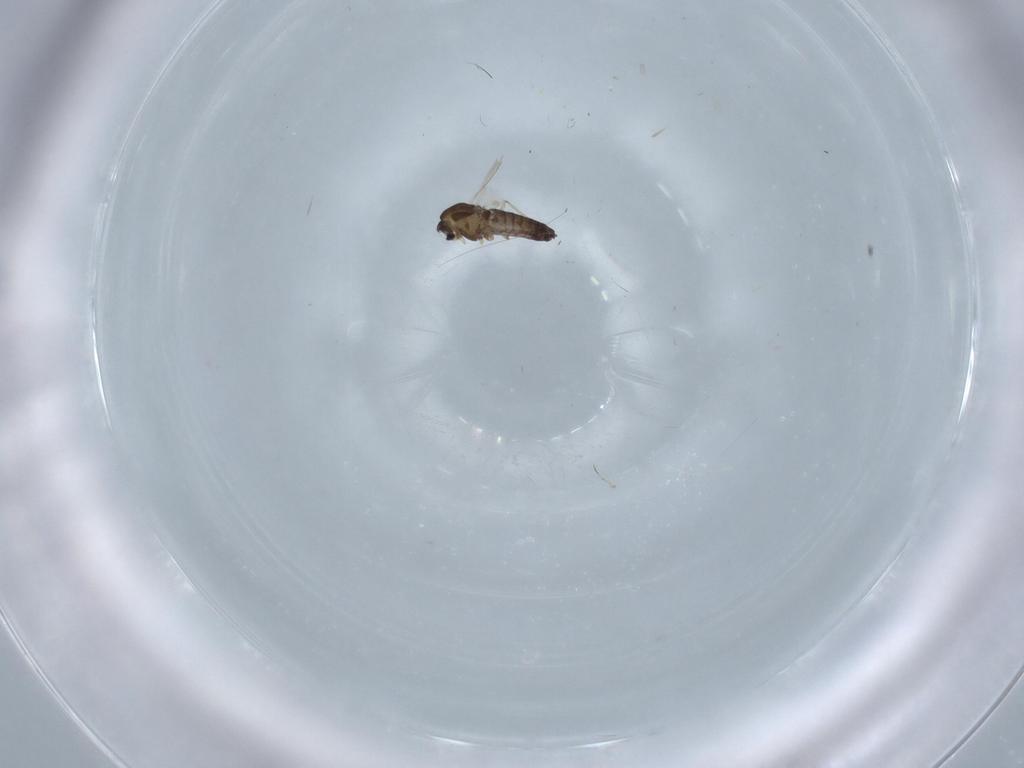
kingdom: Animalia
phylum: Arthropoda
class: Insecta
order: Diptera
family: Chironomidae
